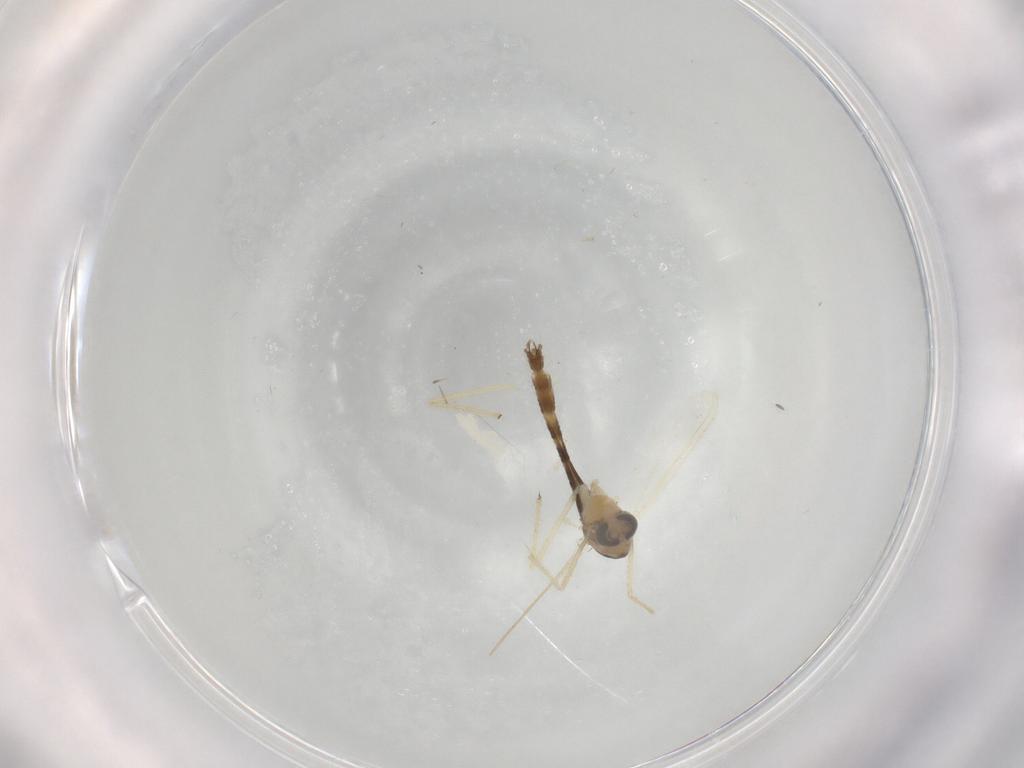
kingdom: Animalia
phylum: Arthropoda
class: Insecta
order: Diptera
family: Chironomidae
